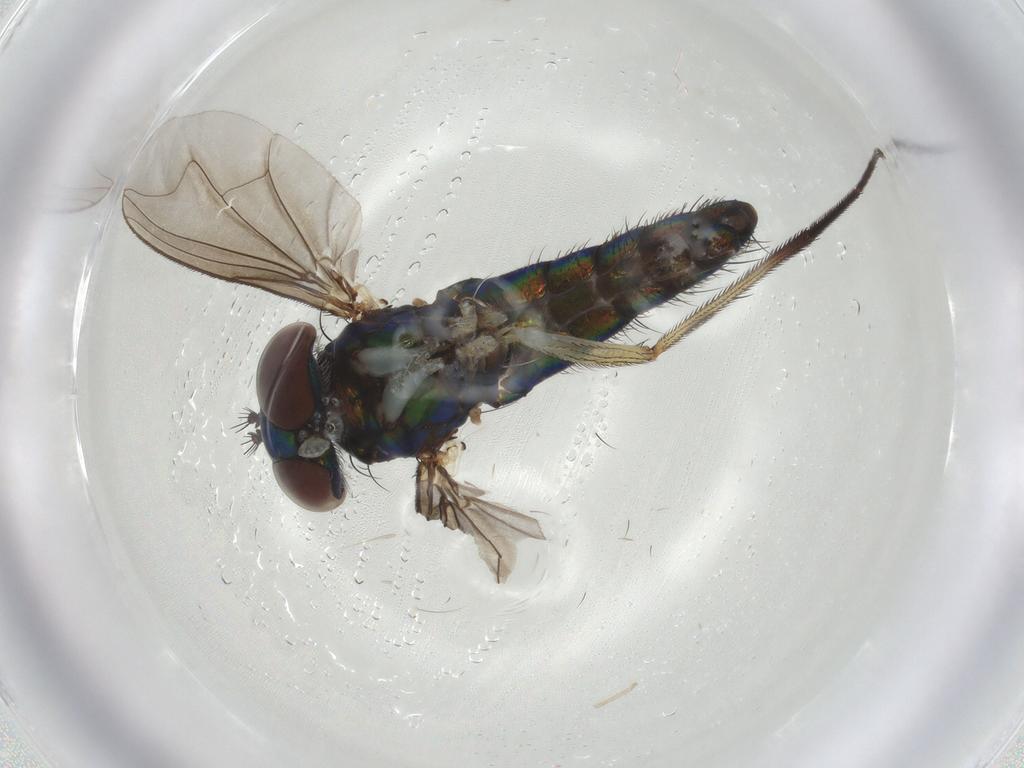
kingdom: Animalia
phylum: Arthropoda
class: Insecta
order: Diptera
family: Dolichopodidae
